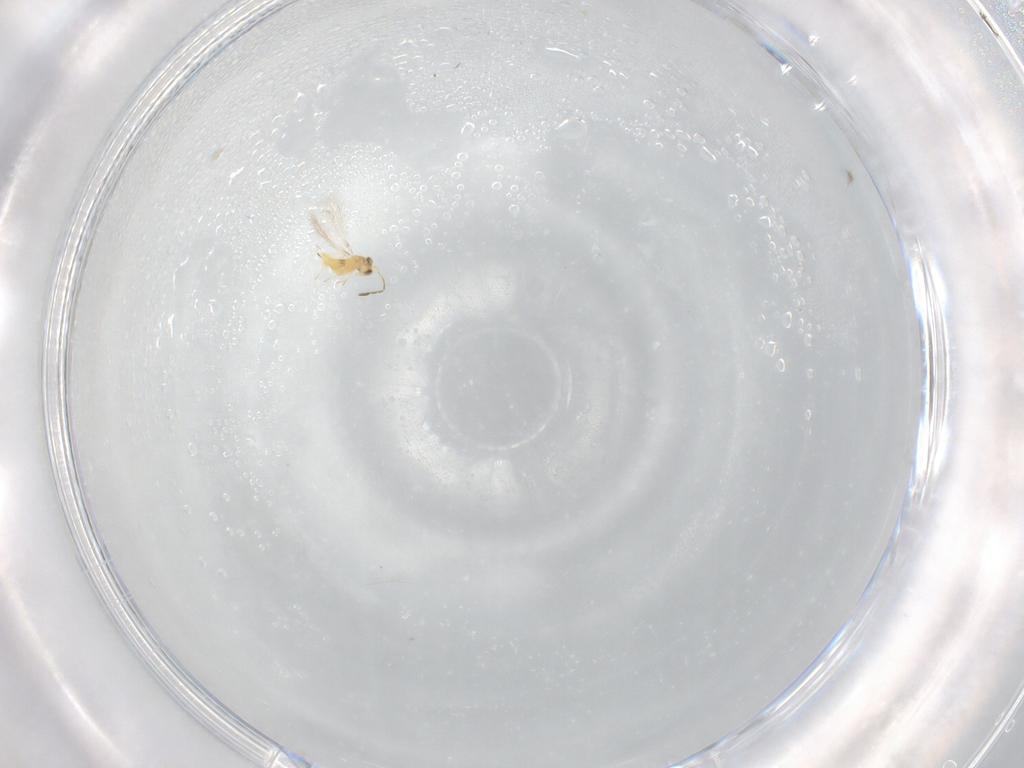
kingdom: Animalia
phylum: Arthropoda
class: Insecta
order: Hymenoptera
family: Mymaridae
